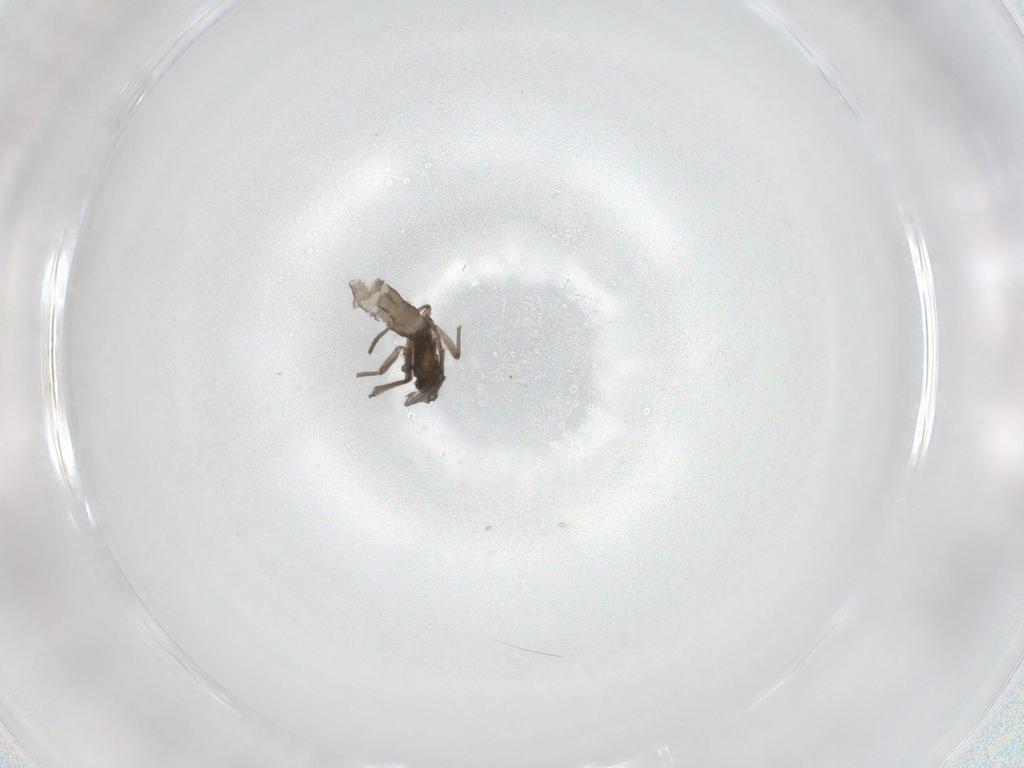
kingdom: Animalia
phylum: Arthropoda
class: Insecta
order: Diptera
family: Sciaridae
